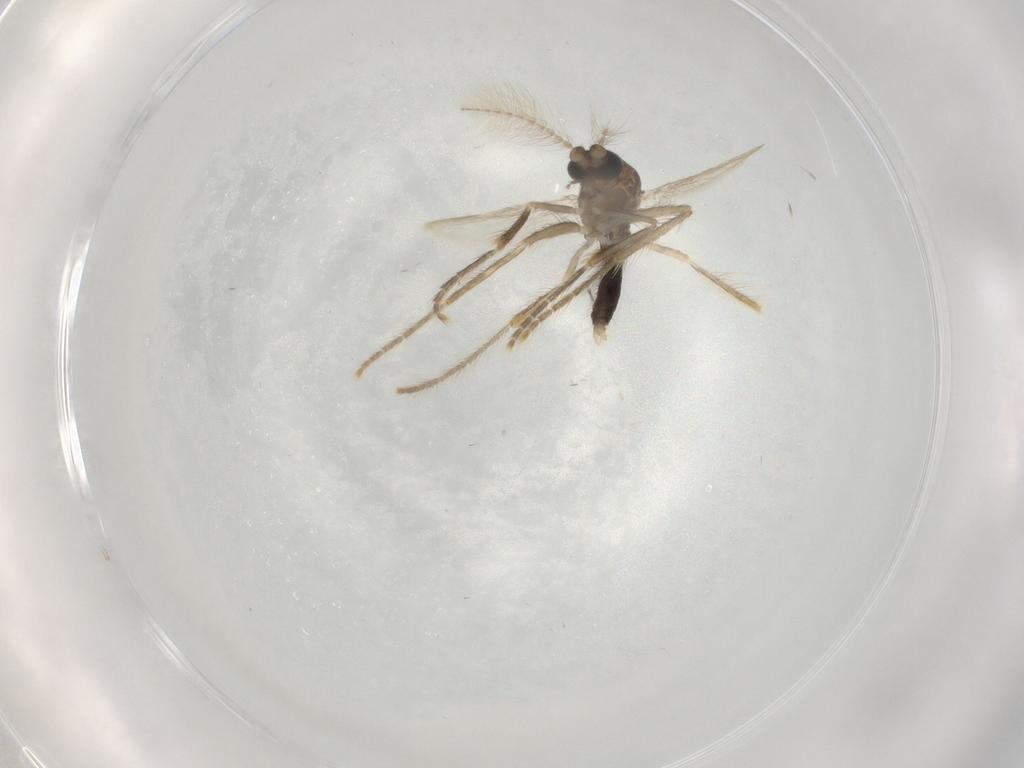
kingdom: Animalia
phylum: Arthropoda
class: Insecta
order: Diptera
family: Corethrellidae
